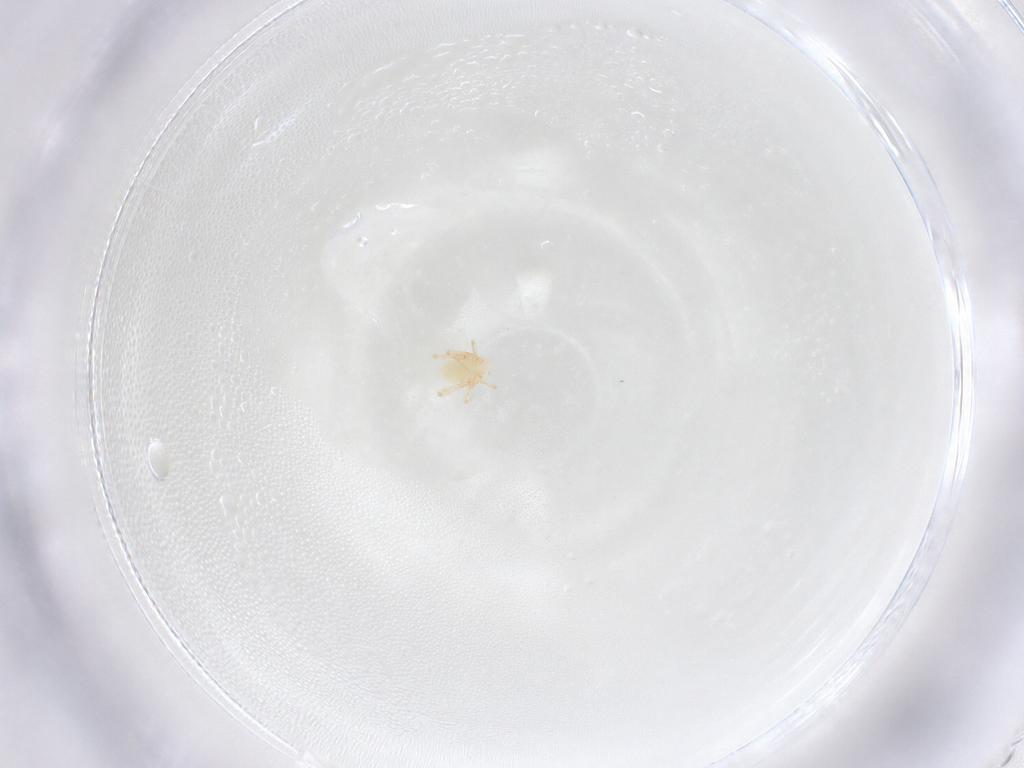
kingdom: Animalia
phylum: Arthropoda
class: Arachnida
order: Trombidiformes
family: Cunaxidae
